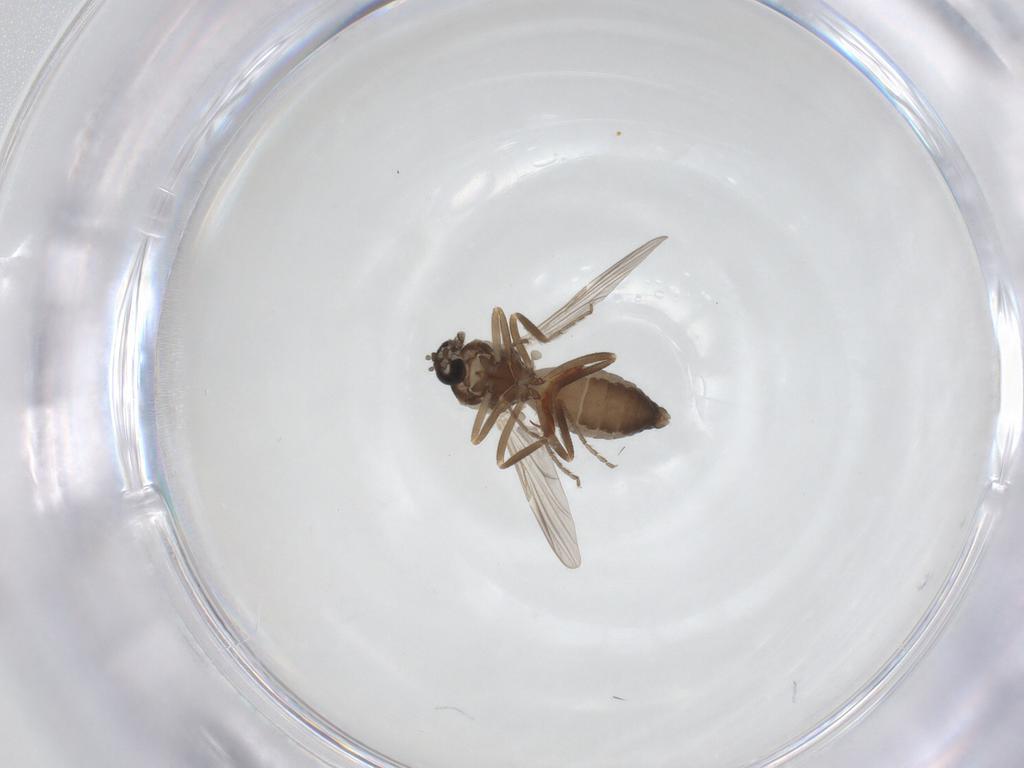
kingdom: Animalia
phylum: Arthropoda
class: Insecta
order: Diptera
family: Ceratopogonidae
